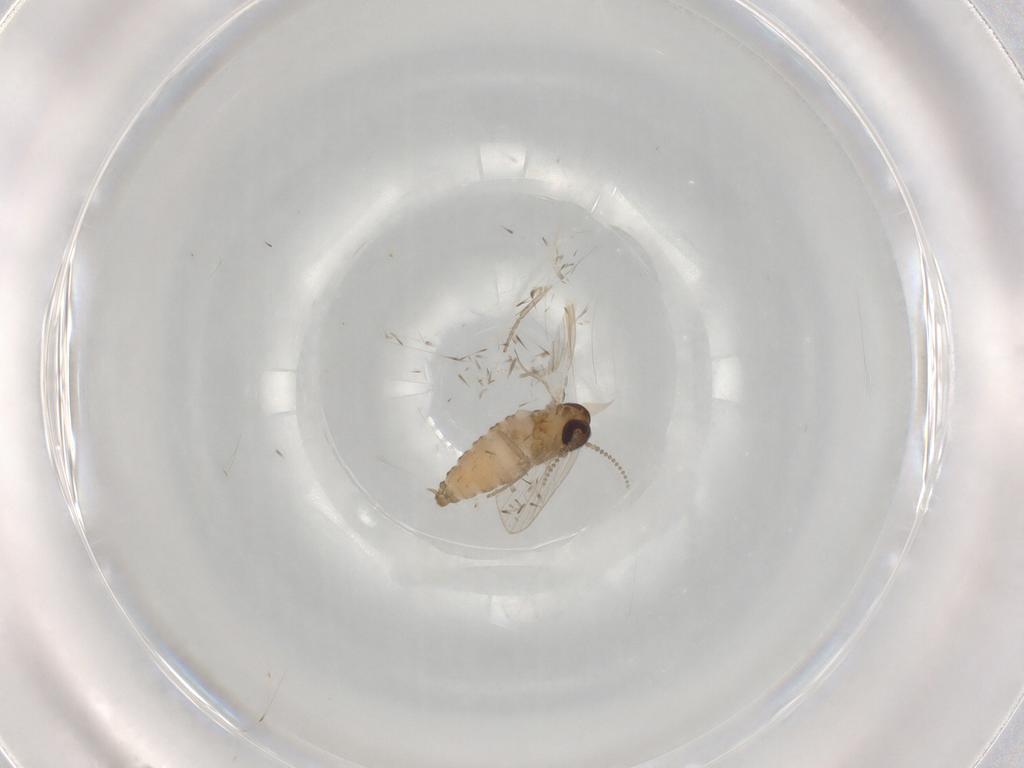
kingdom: Animalia
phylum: Arthropoda
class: Insecta
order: Diptera
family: Psychodidae
